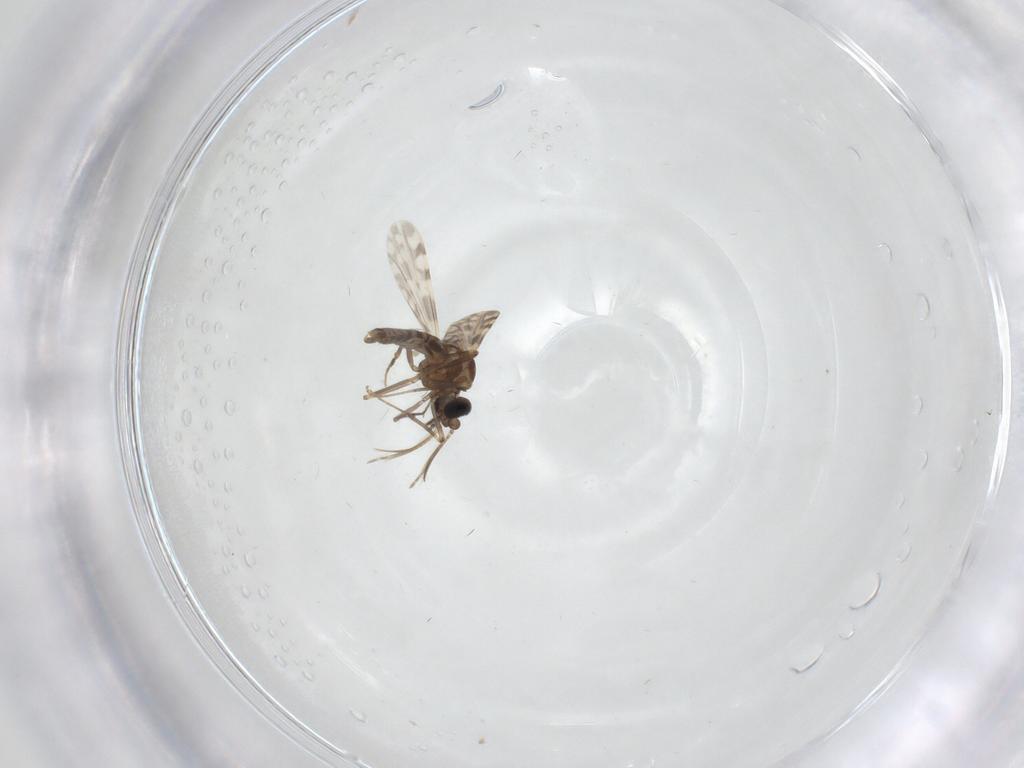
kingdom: Animalia
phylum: Arthropoda
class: Insecta
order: Diptera
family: Ceratopogonidae
